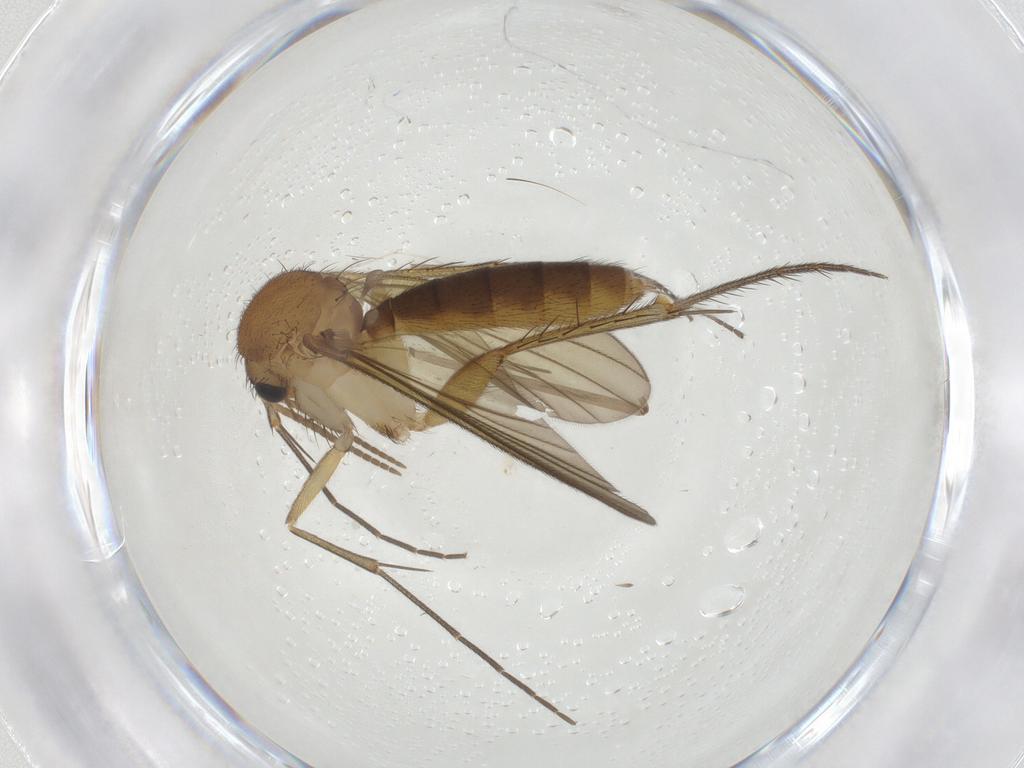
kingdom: Animalia
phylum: Arthropoda
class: Insecta
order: Diptera
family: Mycetophilidae
